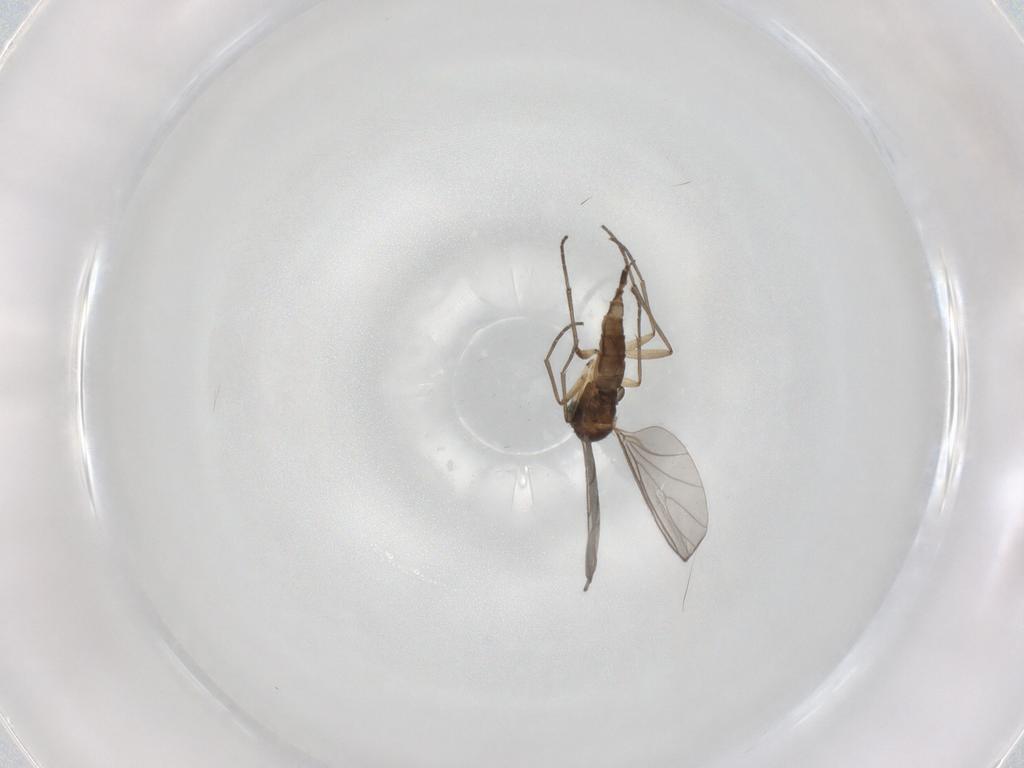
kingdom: Animalia
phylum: Arthropoda
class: Insecta
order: Diptera
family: Sciaridae
